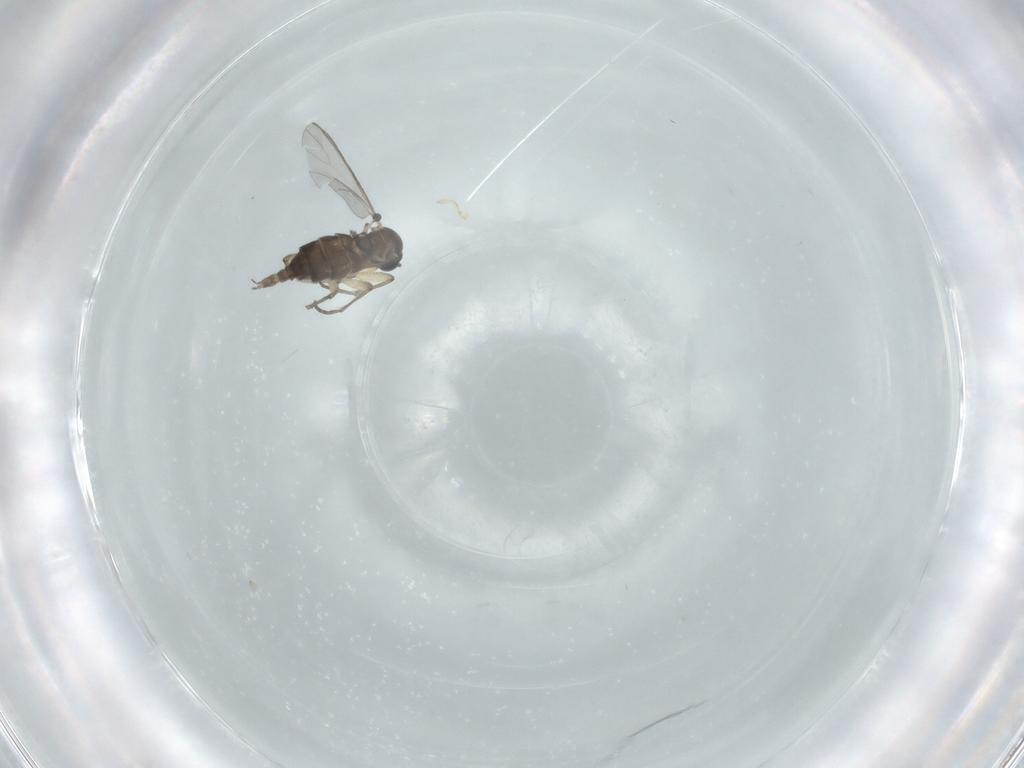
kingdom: Animalia
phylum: Arthropoda
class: Insecta
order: Diptera
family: Sciaridae
